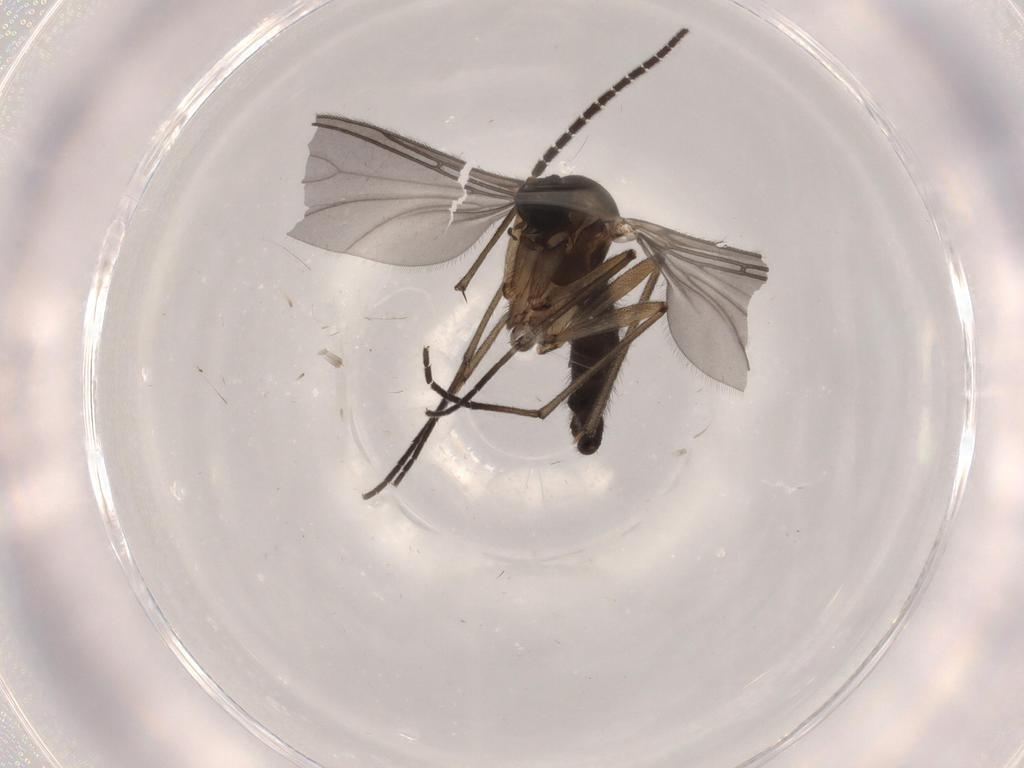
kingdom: Animalia
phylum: Arthropoda
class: Insecta
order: Diptera
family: Sciaridae
